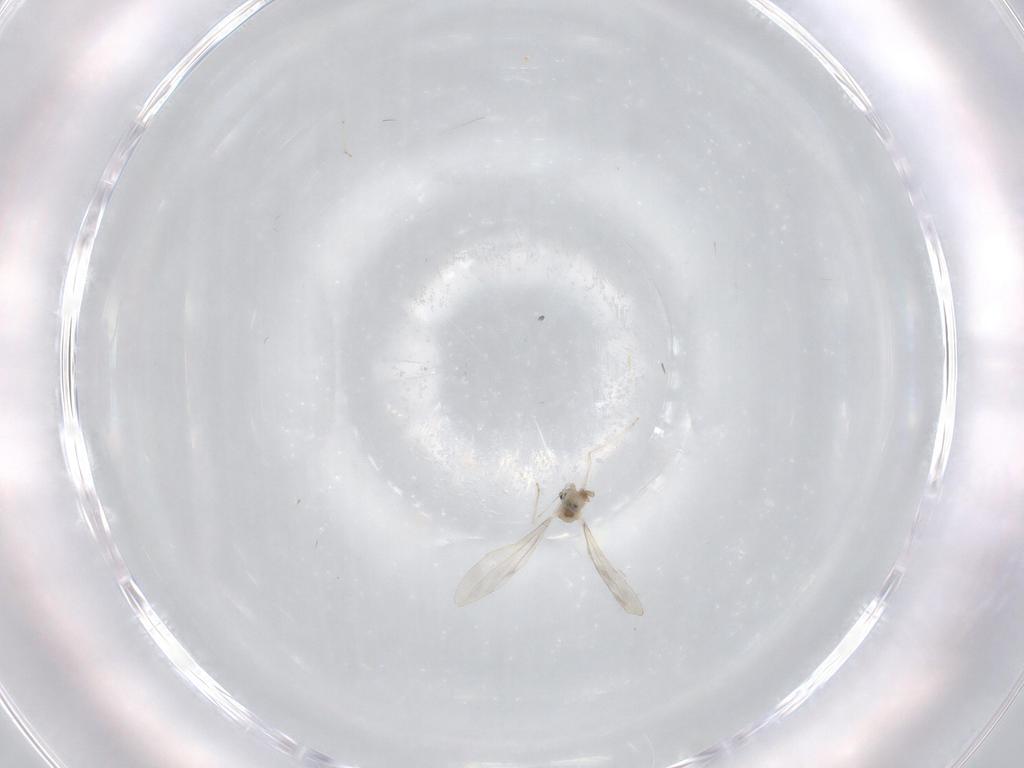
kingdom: Animalia
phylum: Arthropoda
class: Insecta
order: Diptera
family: Cecidomyiidae
